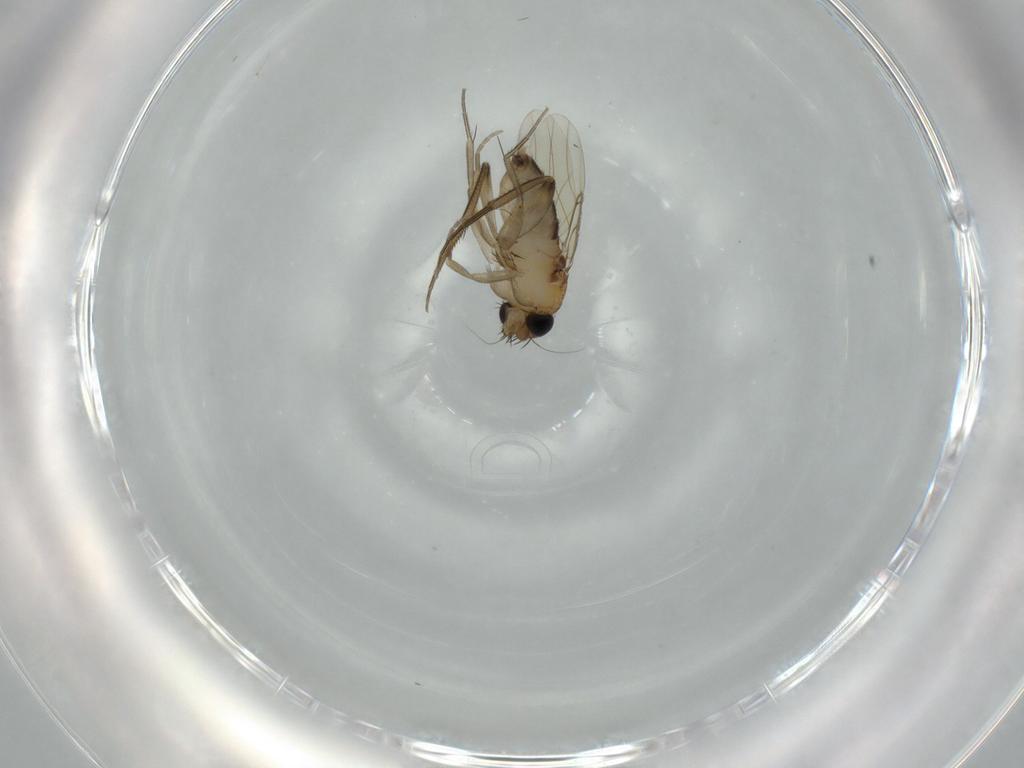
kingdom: Animalia
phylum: Arthropoda
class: Insecta
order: Diptera
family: Phoridae
